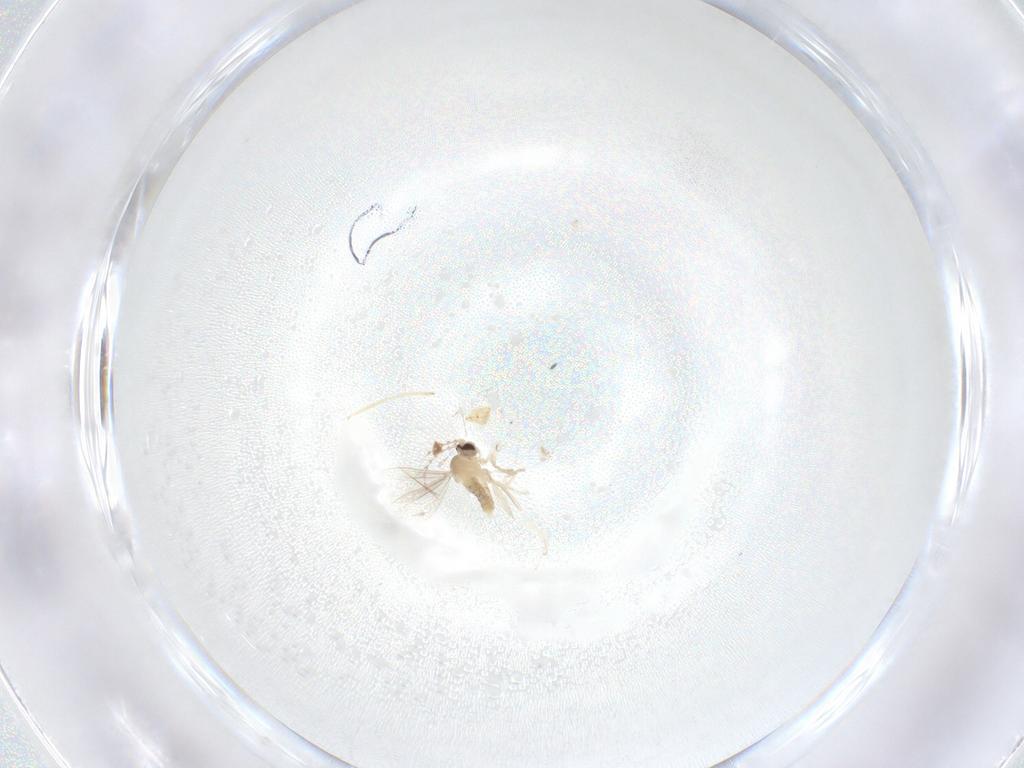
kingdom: Animalia
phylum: Arthropoda
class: Insecta
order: Diptera
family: Cecidomyiidae
